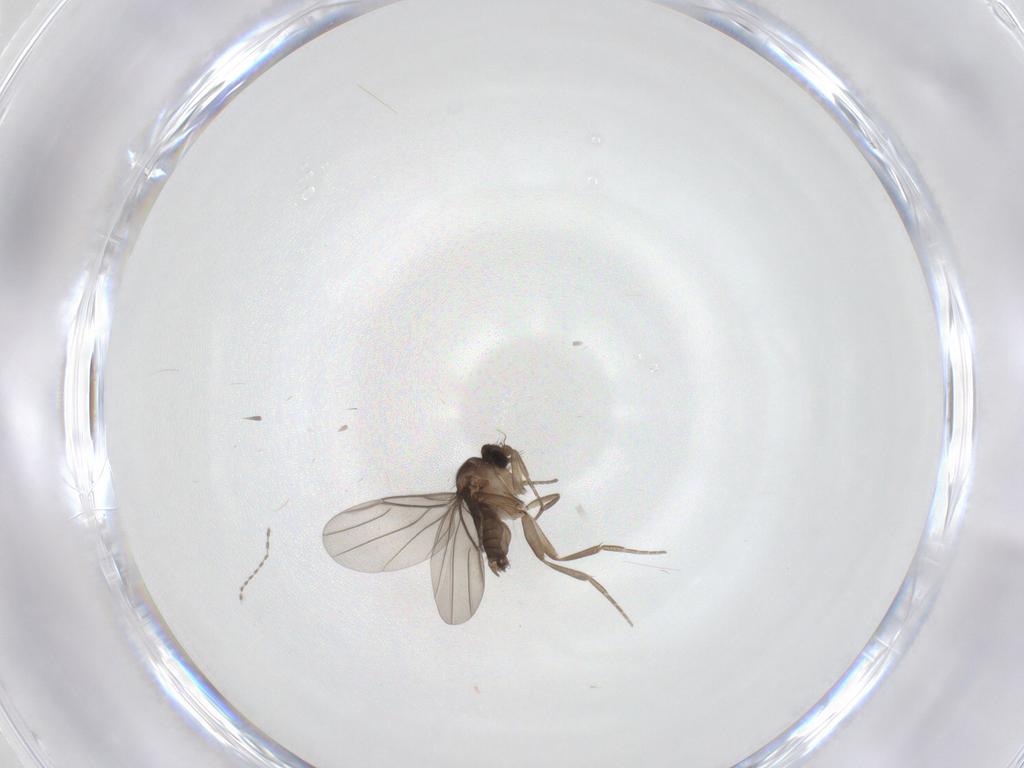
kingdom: Animalia
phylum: Arthropoda
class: Insecta
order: Diptera
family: Phoridae
